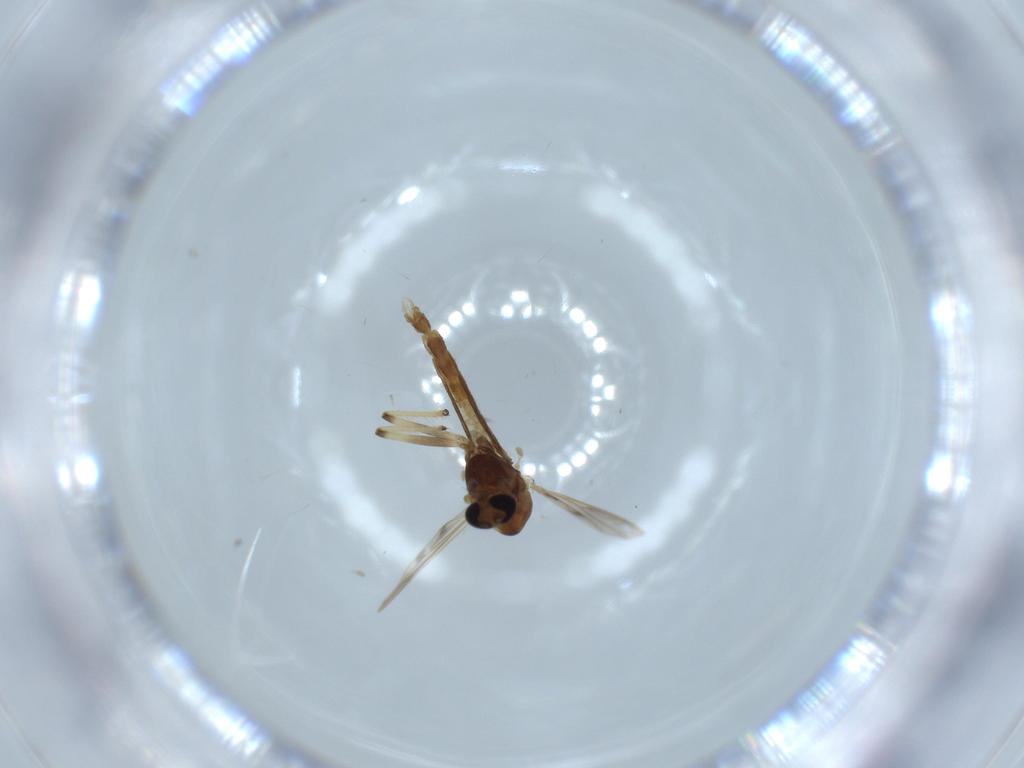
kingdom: Animalia
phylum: Arthropoda
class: Insecta
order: Diptera
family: Chironomidae
